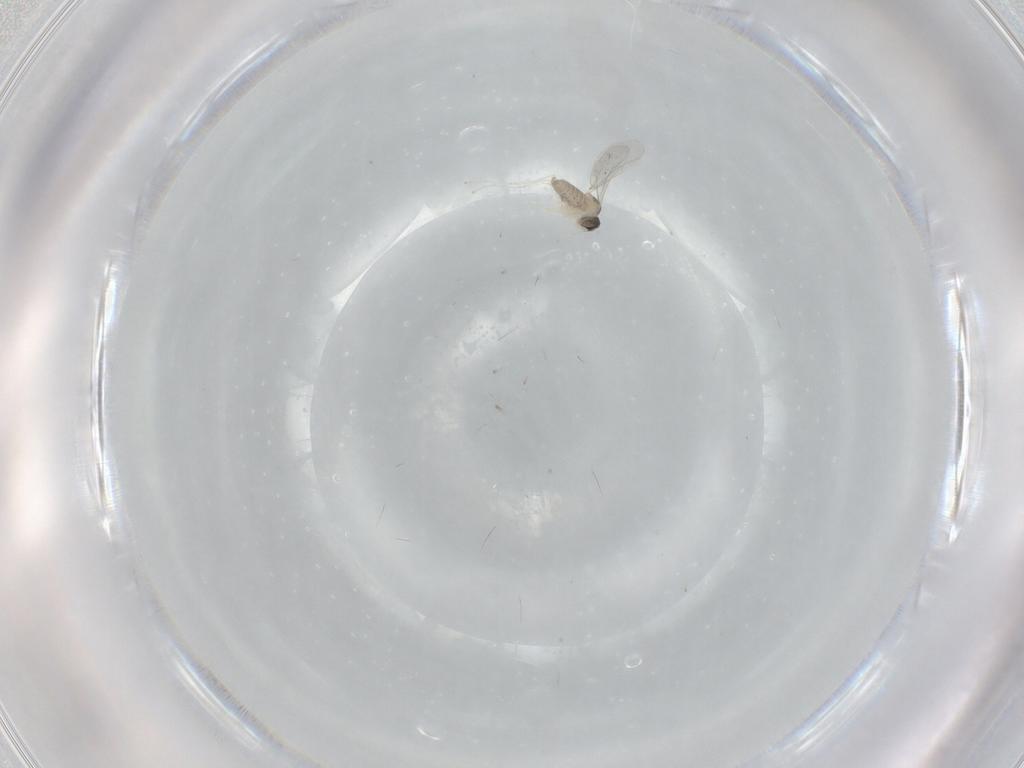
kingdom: Animalia
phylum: Arthropoda
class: Insecta
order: Diptera
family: Cecidomyiidae
